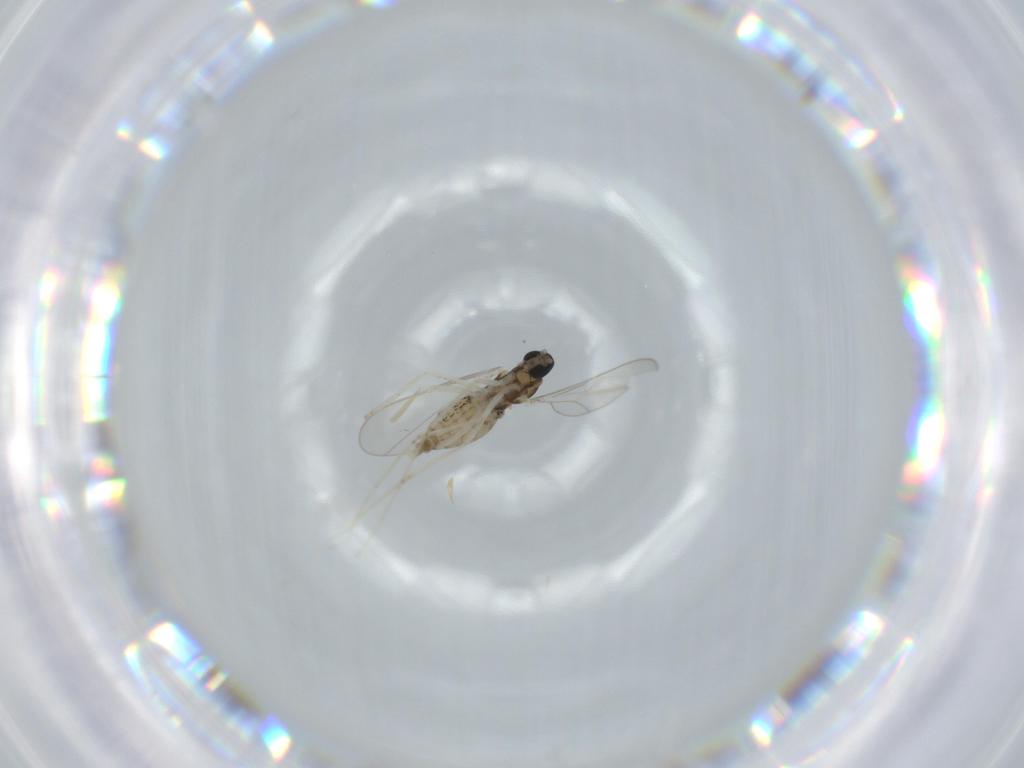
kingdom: Animalia
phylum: Arthropoda
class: Insecta
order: Diptera
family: Cecidomyiidae
